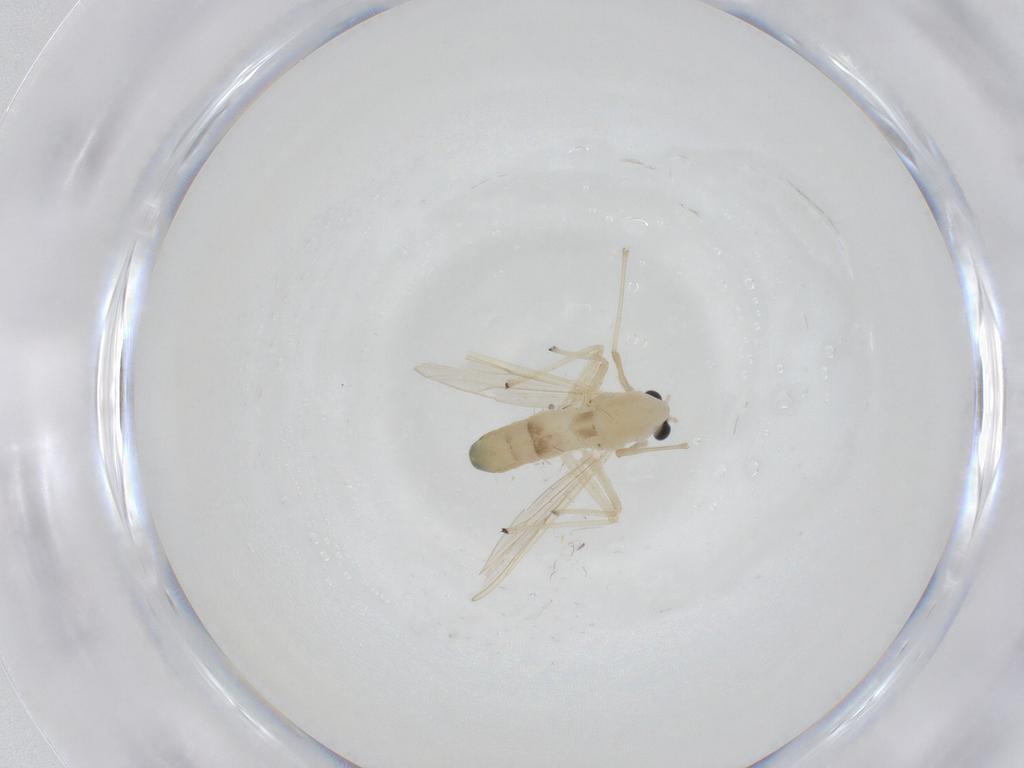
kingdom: Animalia
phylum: Arthropoda
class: Insecta
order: Diptera
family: Chironomidae
